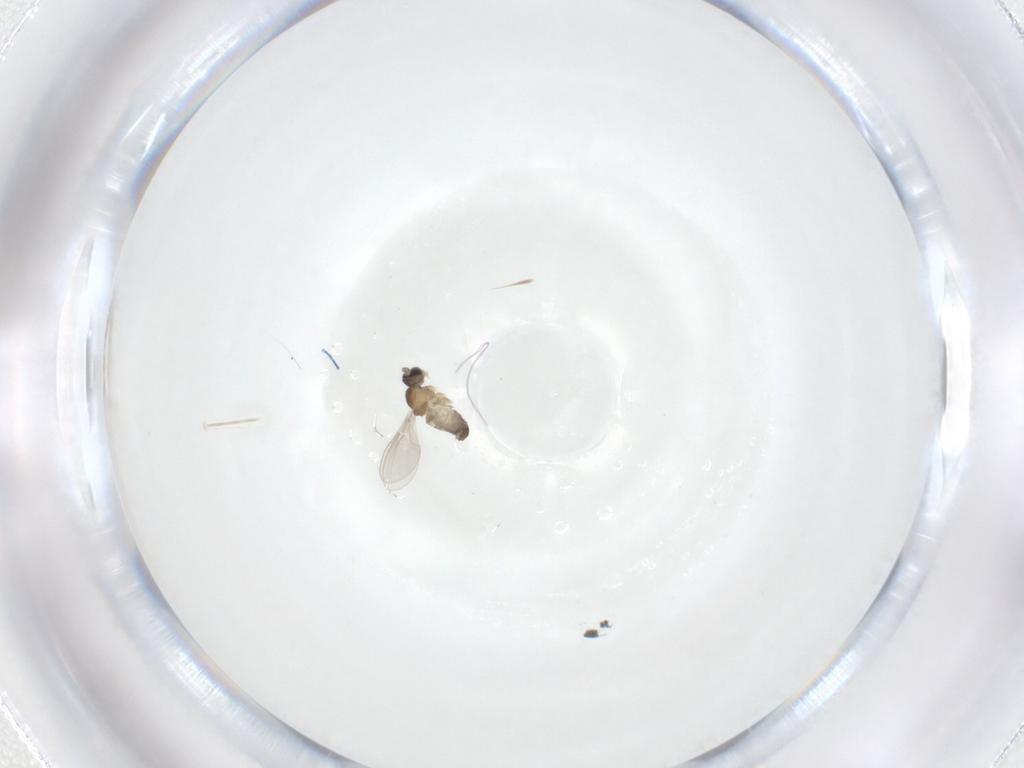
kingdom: Animalia
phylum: Arthropoda
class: Insecta
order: Diptera
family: Cecidomyiidae
